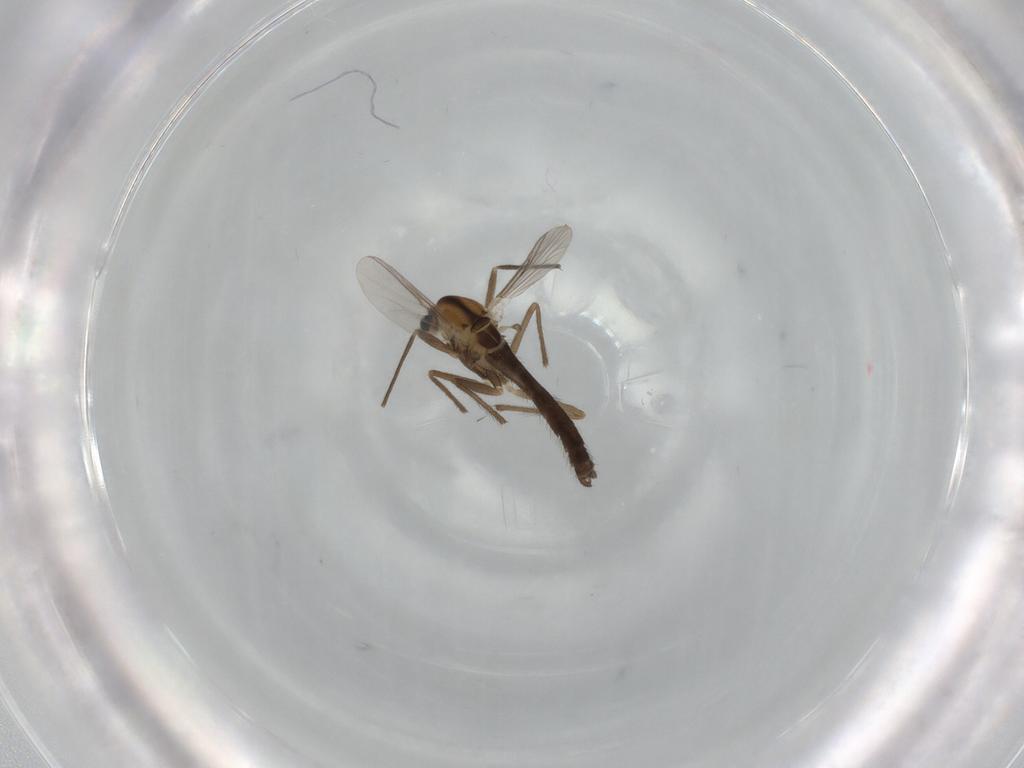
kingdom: Animalia
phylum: Arthropoda
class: Insecta
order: Diptera
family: Chironomidae
